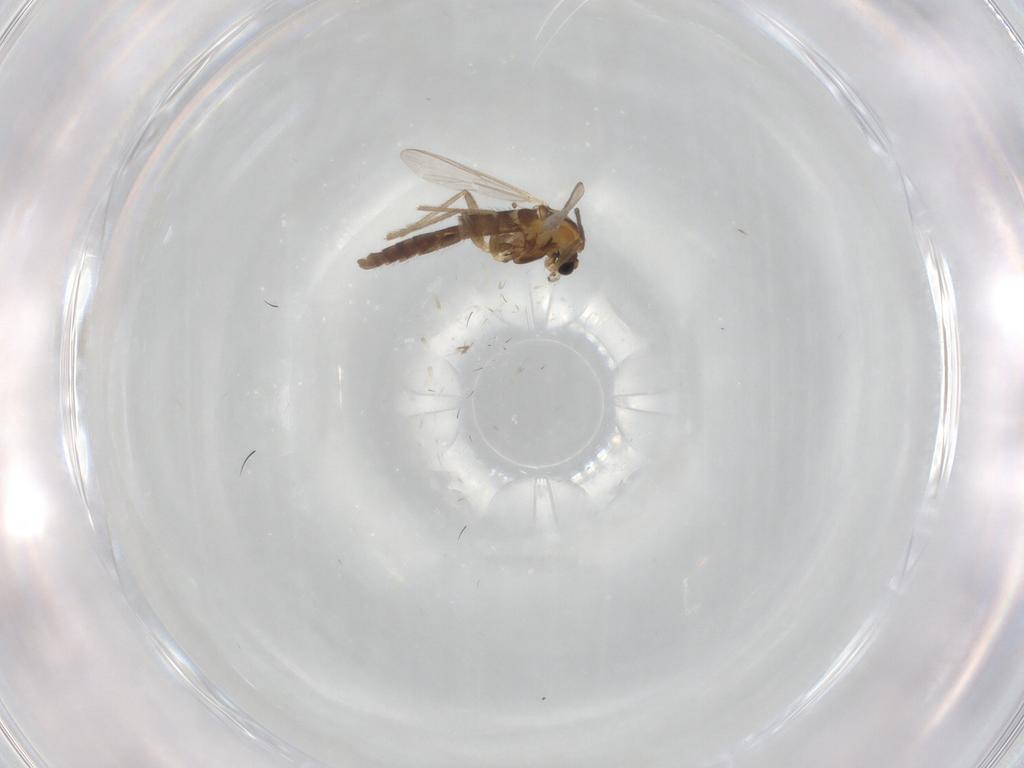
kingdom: Animalia
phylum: Arthropoda
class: Insecta
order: Diptera
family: Chironomidae
